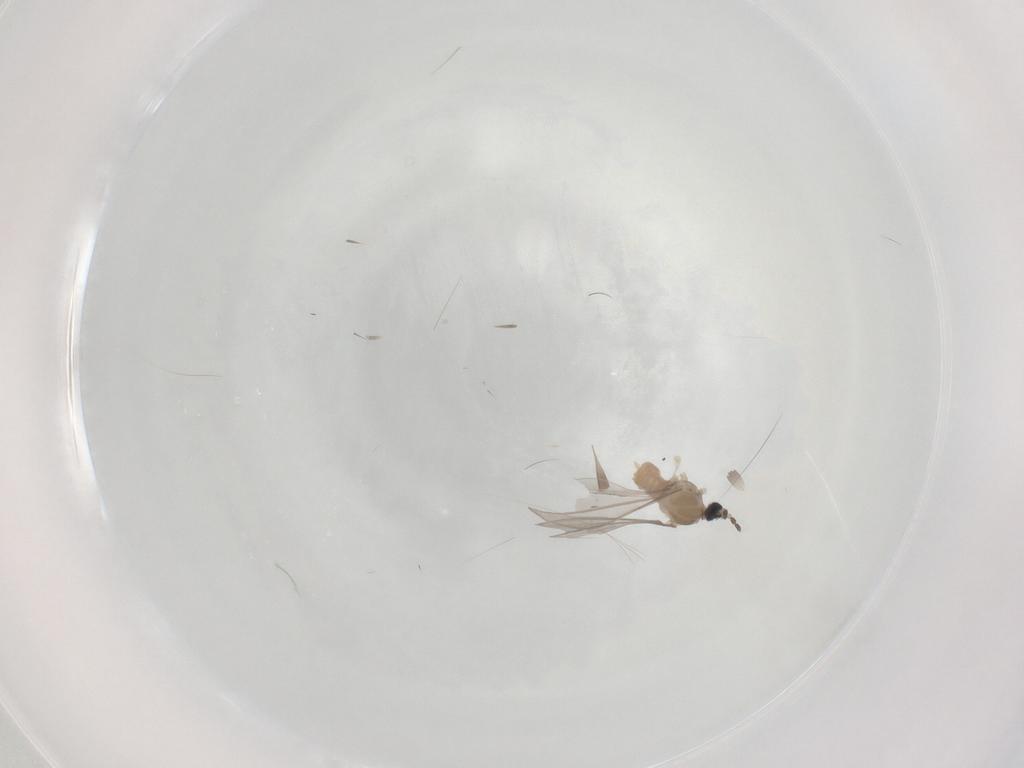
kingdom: Animalia
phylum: Arthropoda
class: Insecta
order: Diptera
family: Cecidomyiidae
